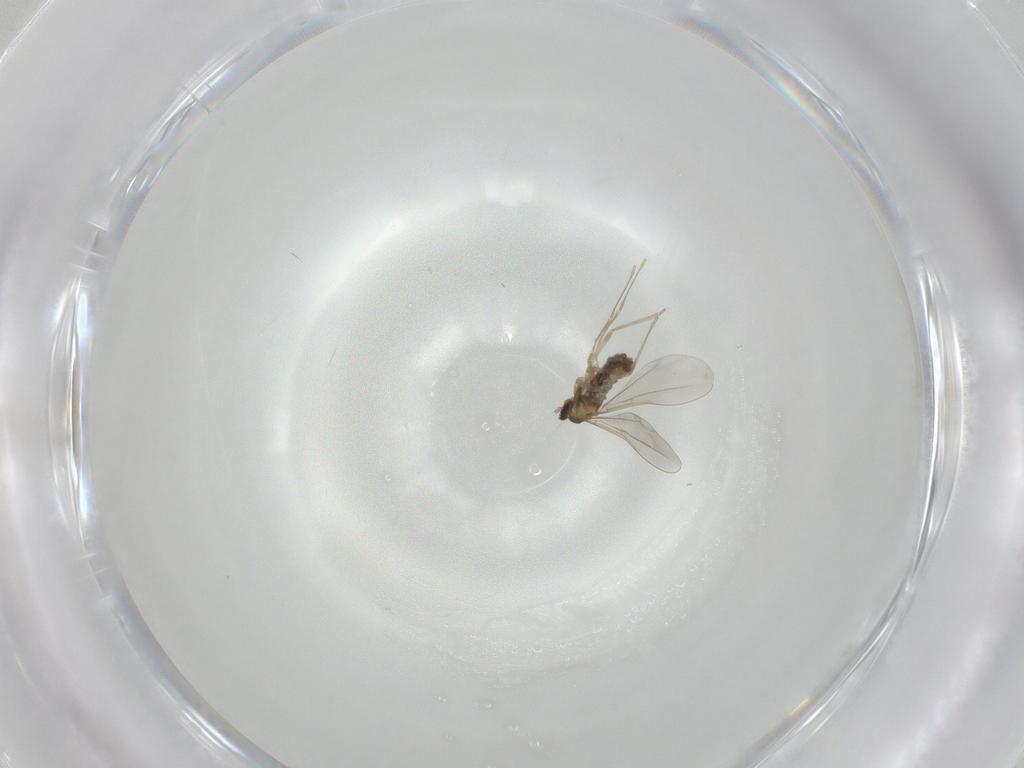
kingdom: Animalia
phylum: Arthropoda
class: Insecta
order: Diptera
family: Cecidomyiidae
